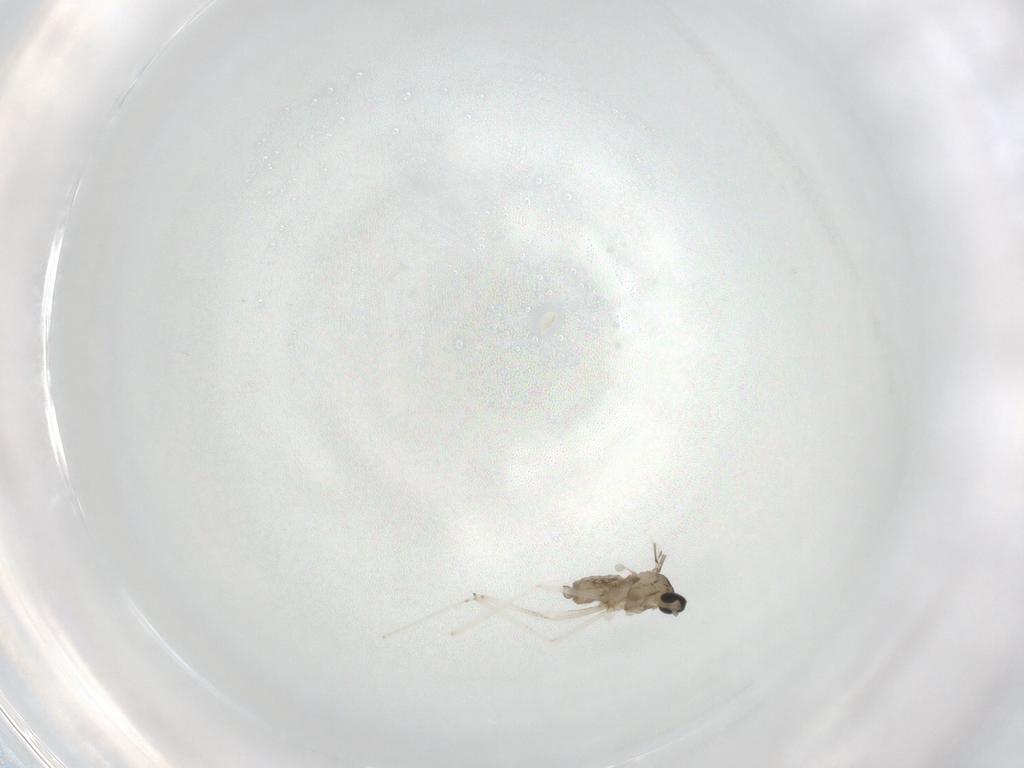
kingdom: Animalia
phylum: Arthropoda
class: Insecta
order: Diptera
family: Cecidomyiidae
